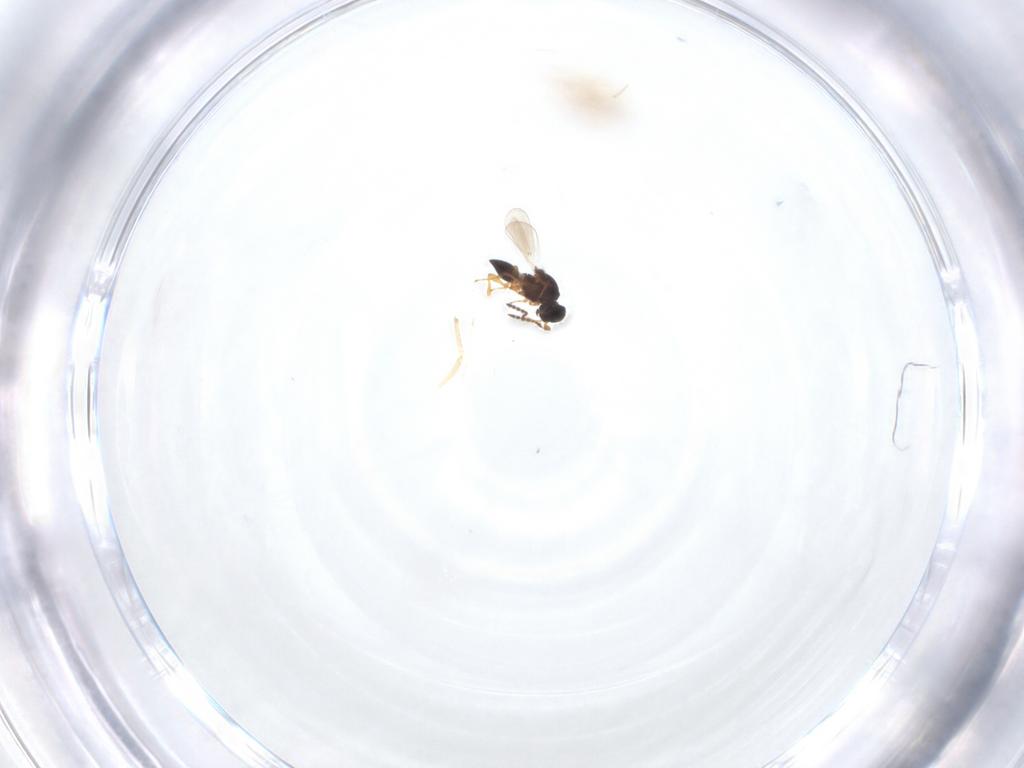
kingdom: Animalia
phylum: Arthropoda
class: Insecta
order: Hymenoptera
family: Platygastridae
